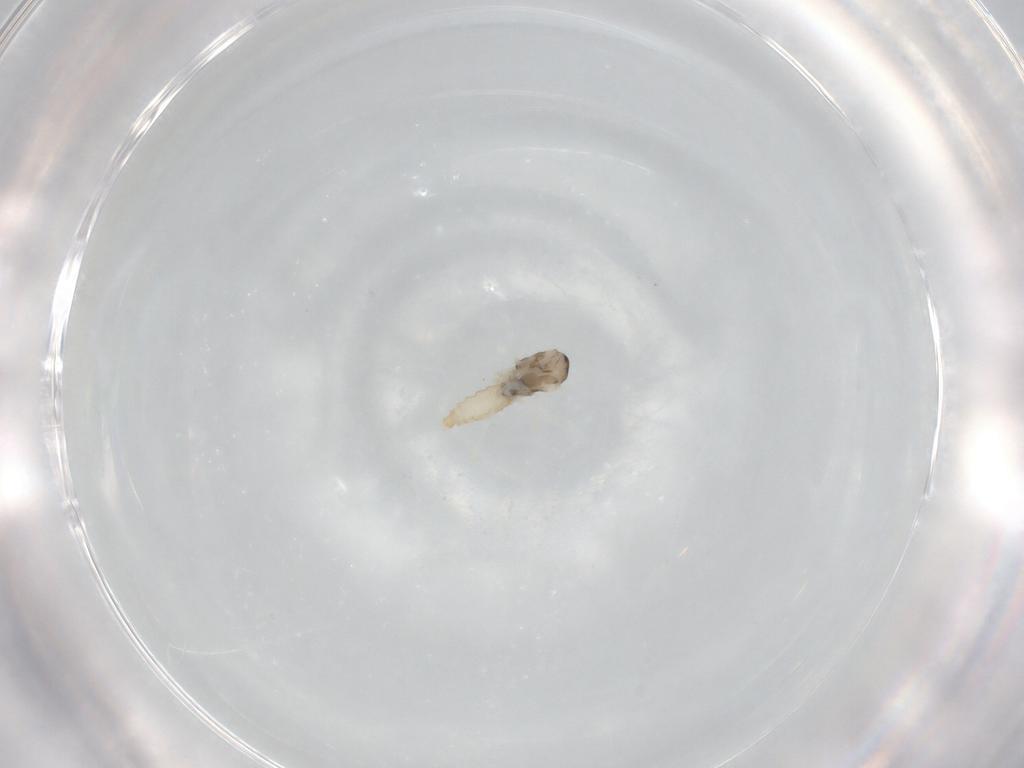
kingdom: Animalia
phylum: Arthropoda
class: Insecta
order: Diptera
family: Cecidomyiidae
